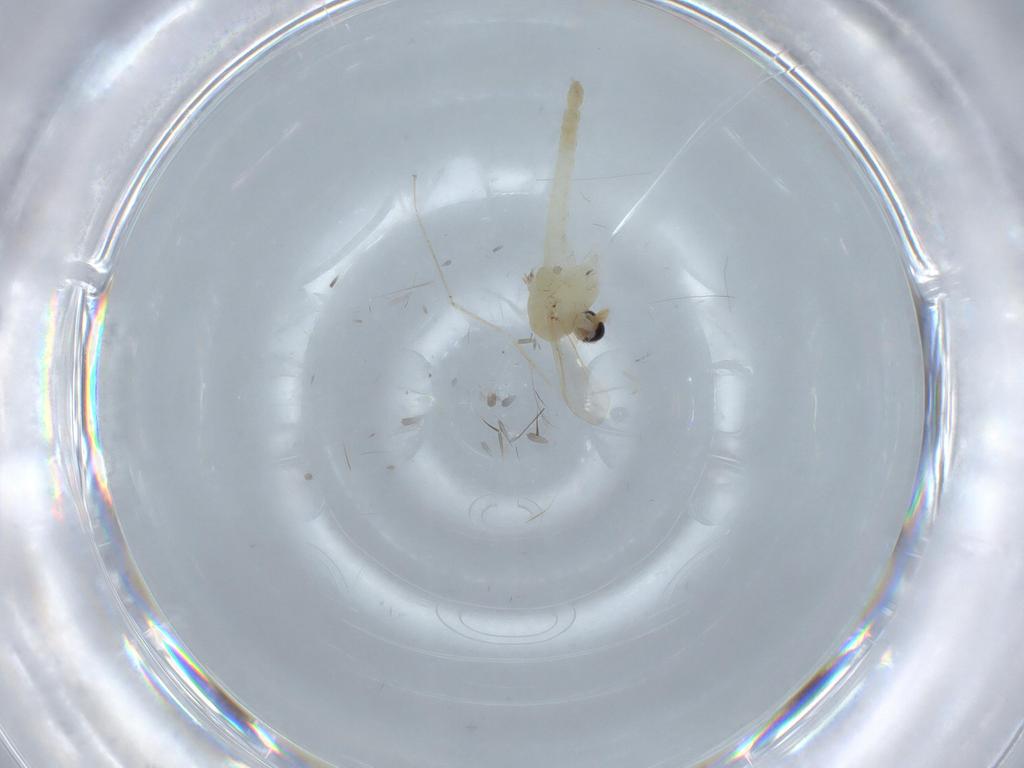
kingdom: Animalia
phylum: Arthropoda
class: Insecta
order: Diptera
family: Chironomidae
